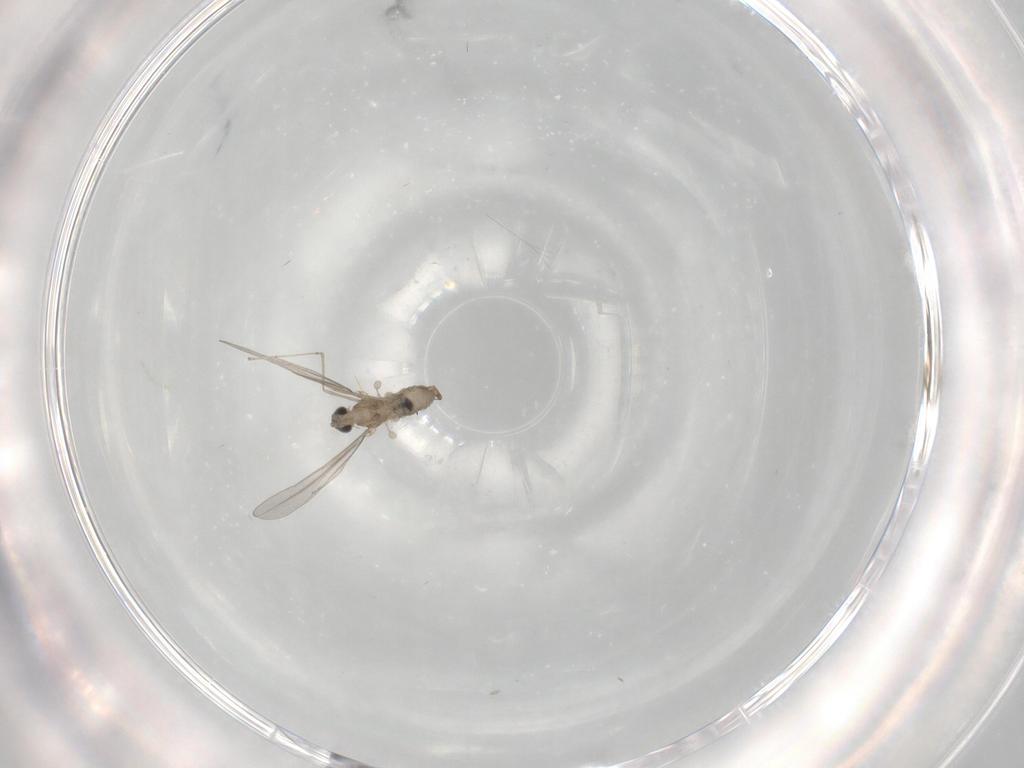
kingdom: Animalia
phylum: Arthropoda
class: Insecta
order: Diptera
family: Cecidomyiidae
